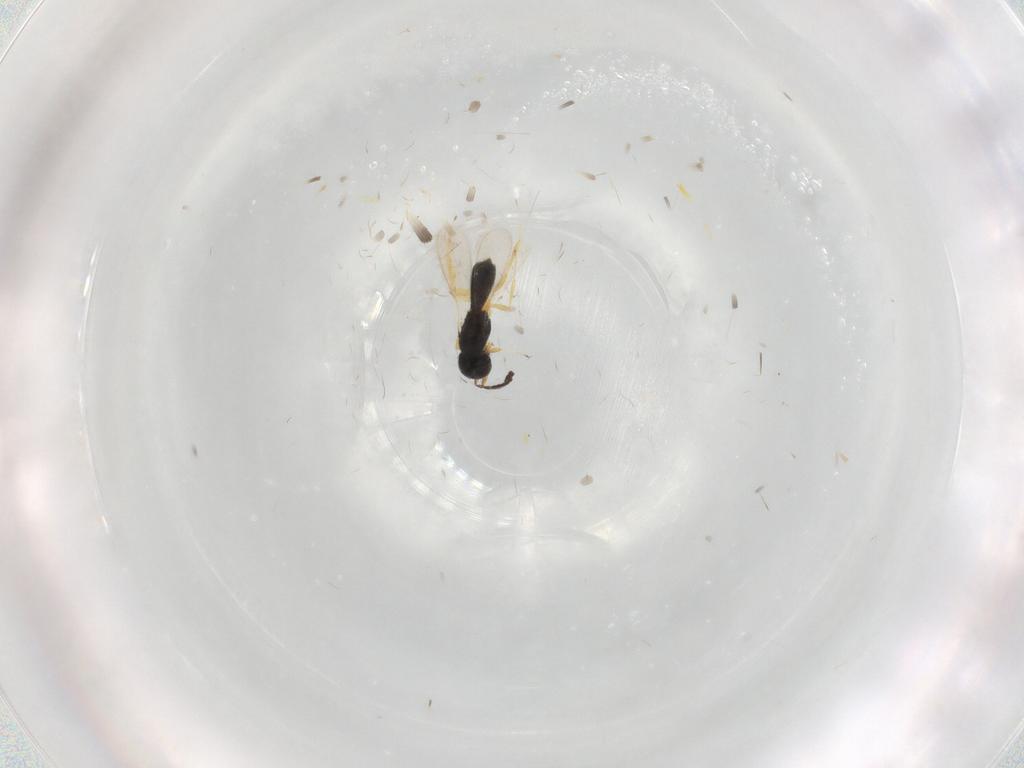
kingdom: Animalia
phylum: Arthropoda
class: Insecta
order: Hymenoptera
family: Scelionidae
